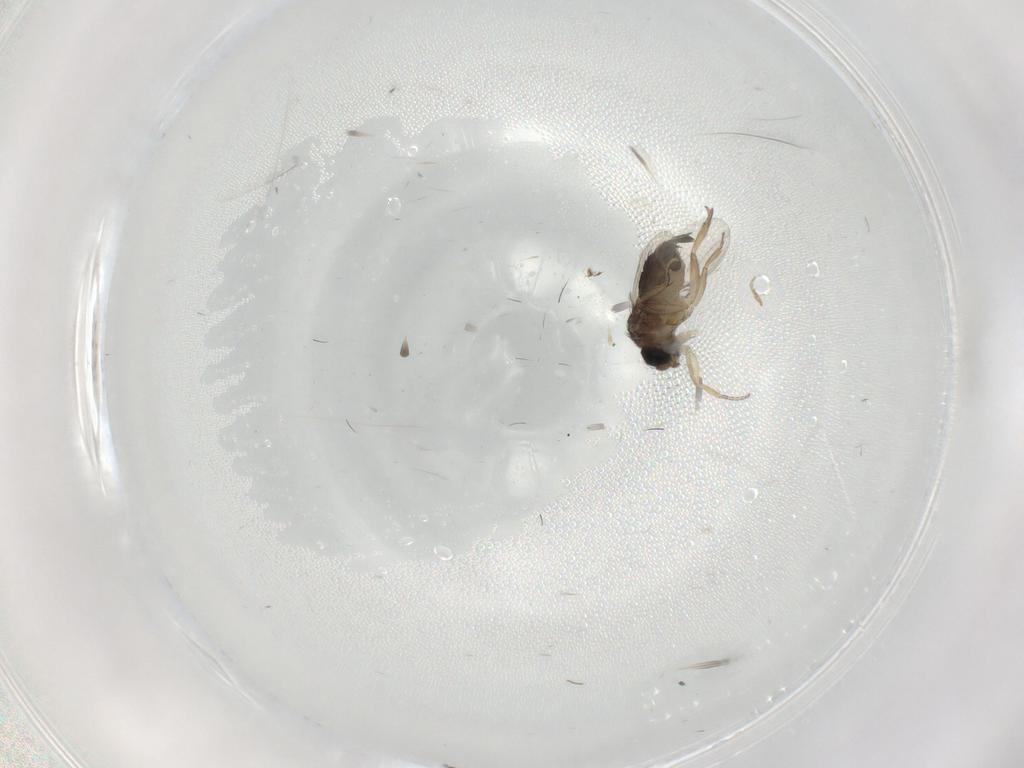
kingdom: Animalia
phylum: Arthropoda
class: Insecta
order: Diptera
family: Phoridae
